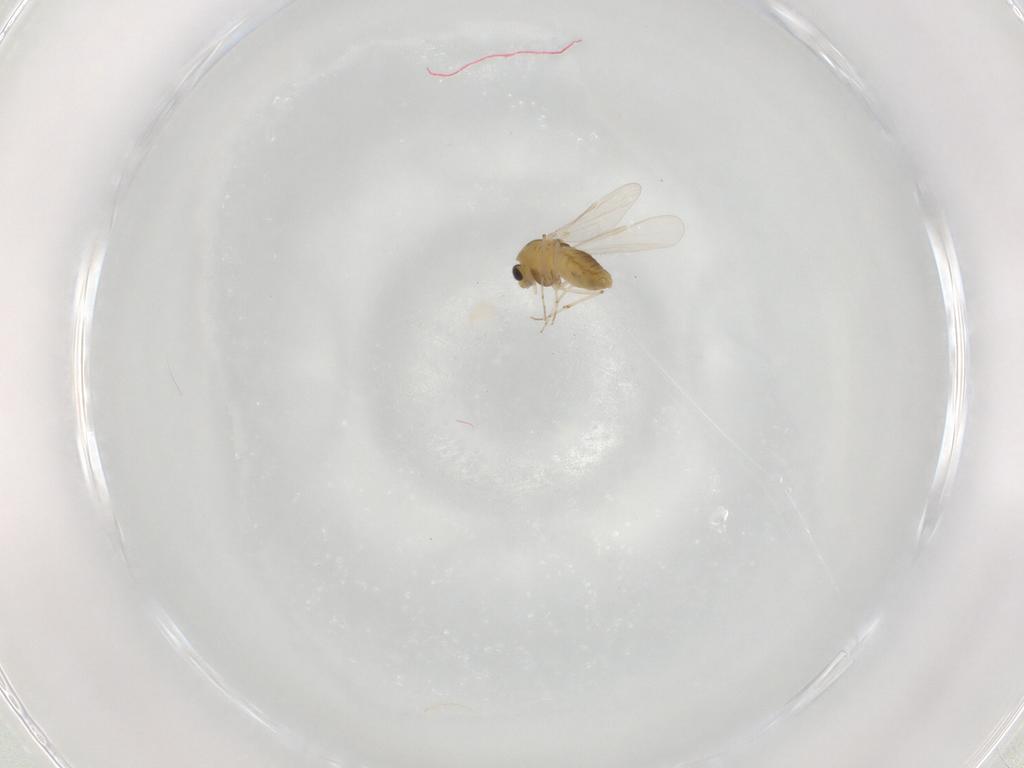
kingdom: Animalia
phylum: Arthropoda
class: Insecta
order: Diptera
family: Chironomidae
